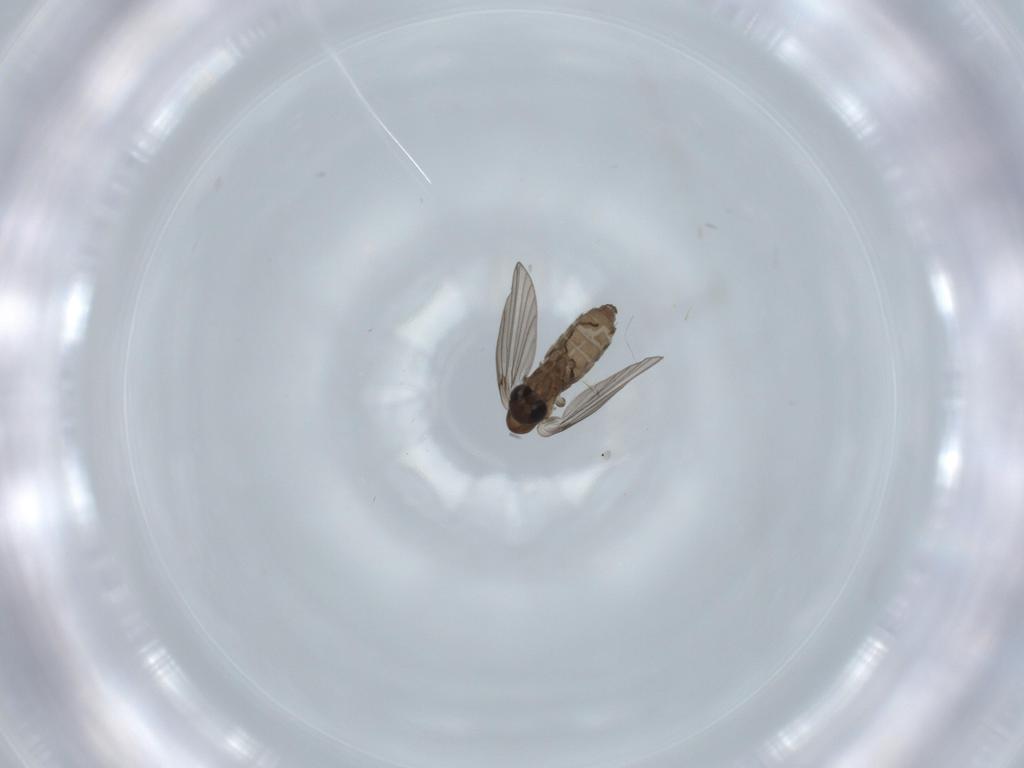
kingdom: Animalia
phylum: Arthropoda
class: Insecta
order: Diptera
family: Psychodidae
